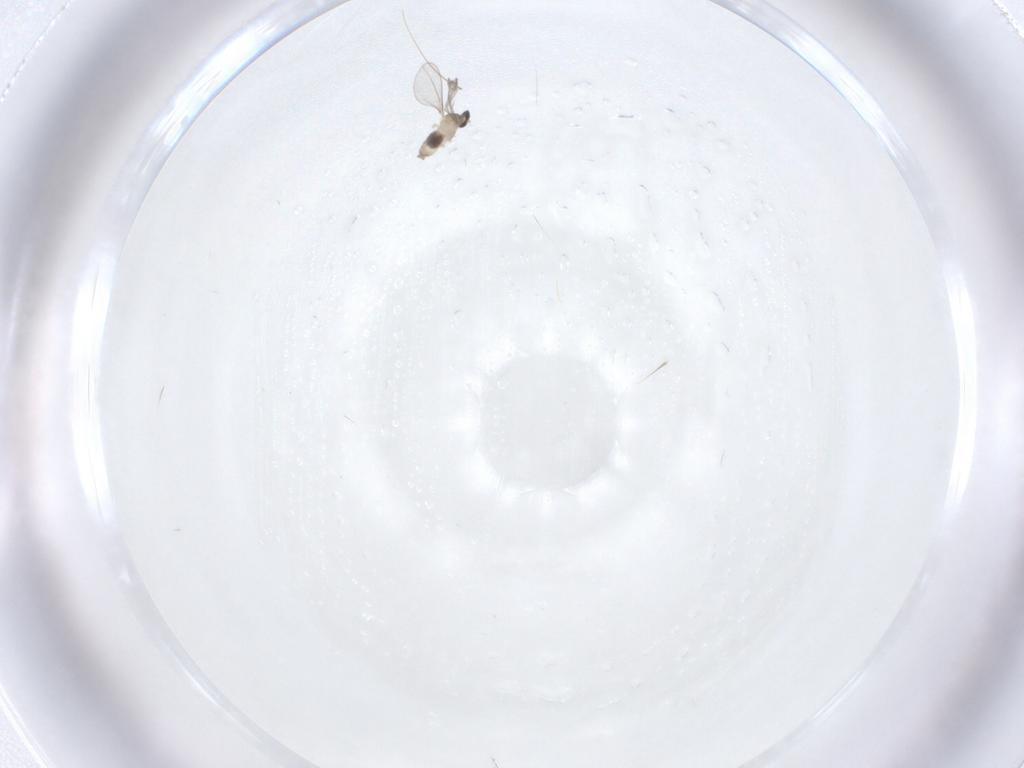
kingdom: Animalia
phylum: Arthropoda
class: Insecta
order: Diptera
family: Cecidomyiidae
